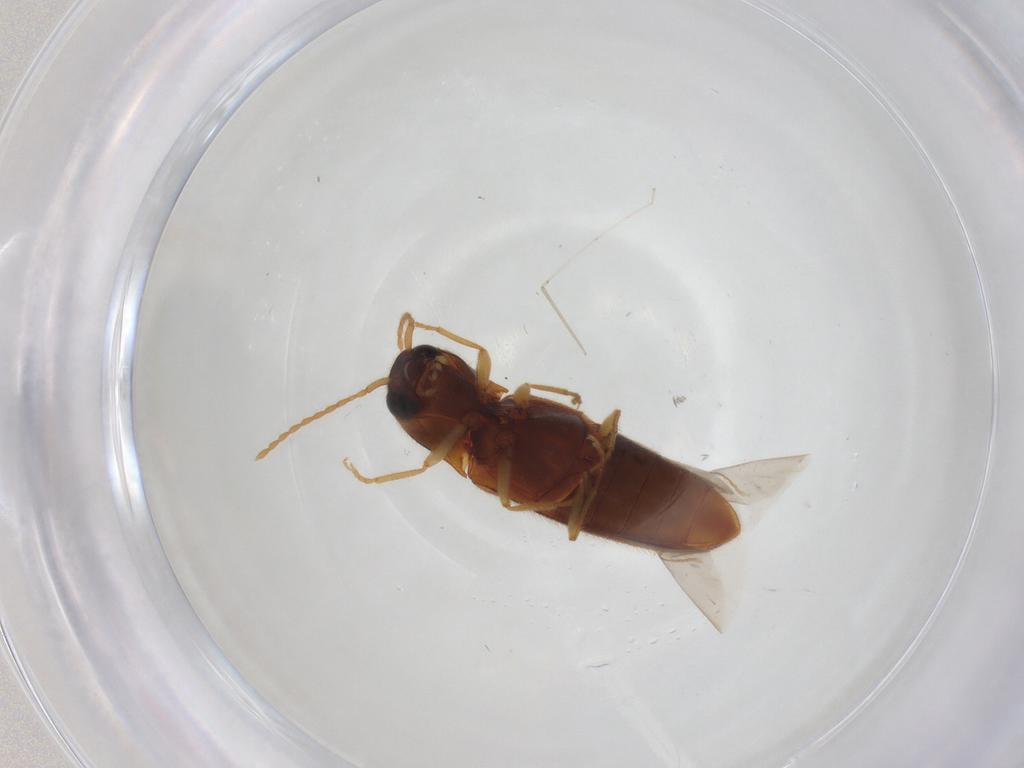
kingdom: Animalia
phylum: Arthropoda
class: Insecta
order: Coleoptera
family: Elateridae
